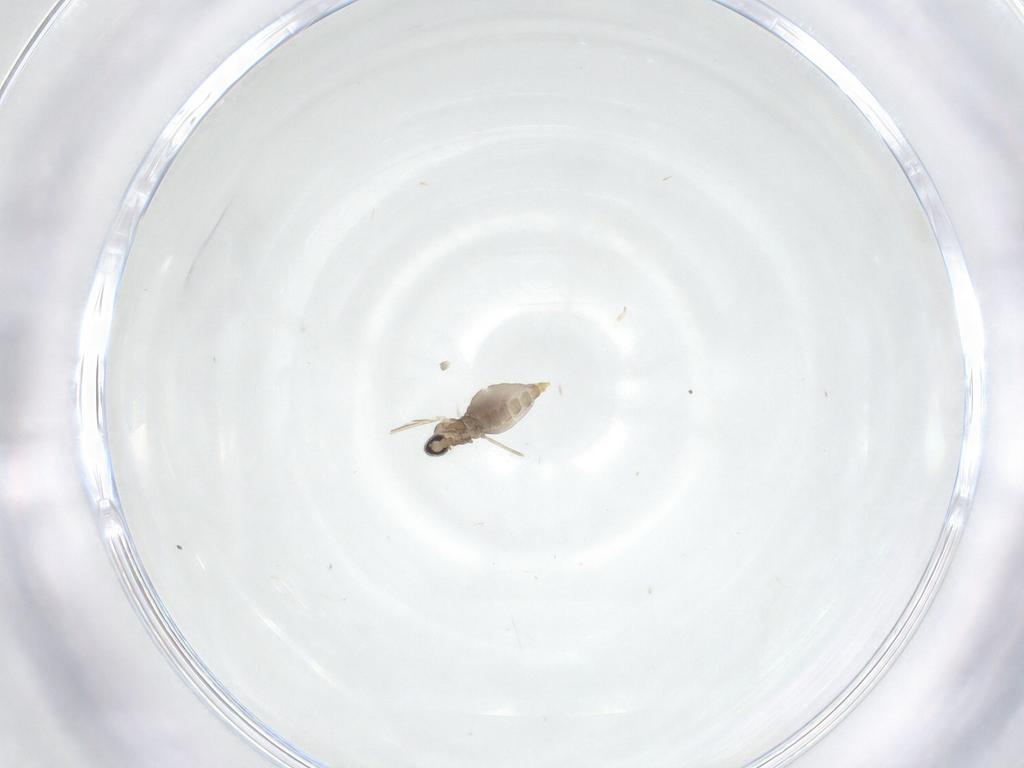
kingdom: Animalia
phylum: Arthropoda
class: Insecta
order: Diptera
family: Cecidomyiidae
